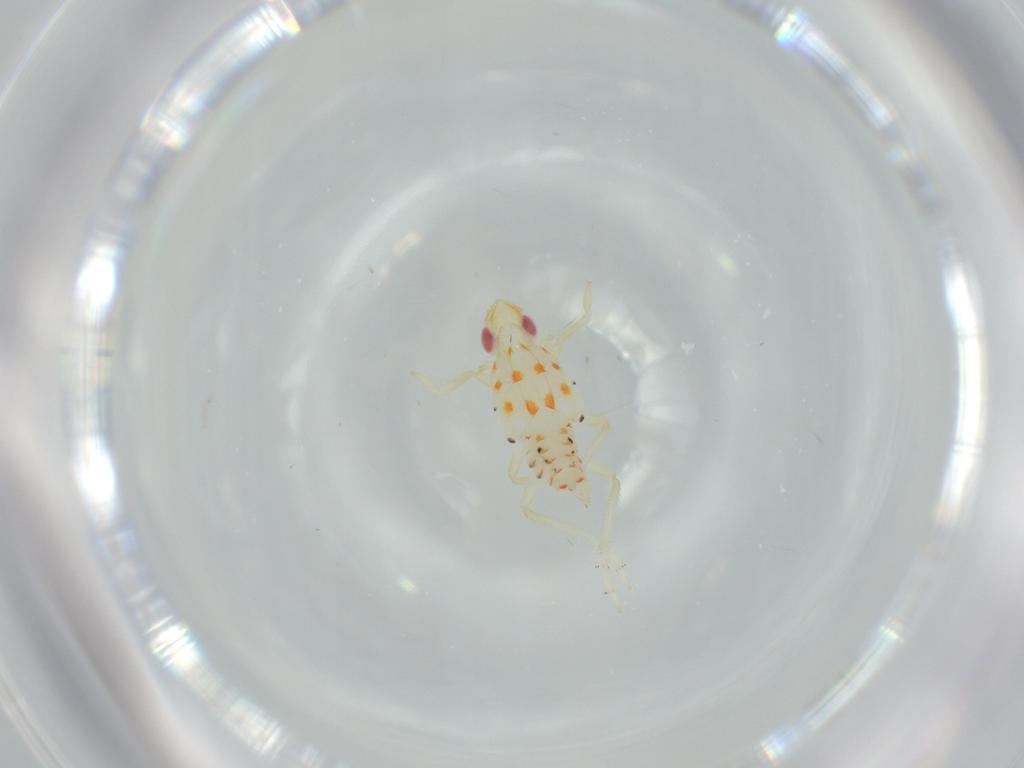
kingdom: Animalia
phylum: Arthropoda
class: Insecta
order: Hemiptera
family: Tropiduchidae
